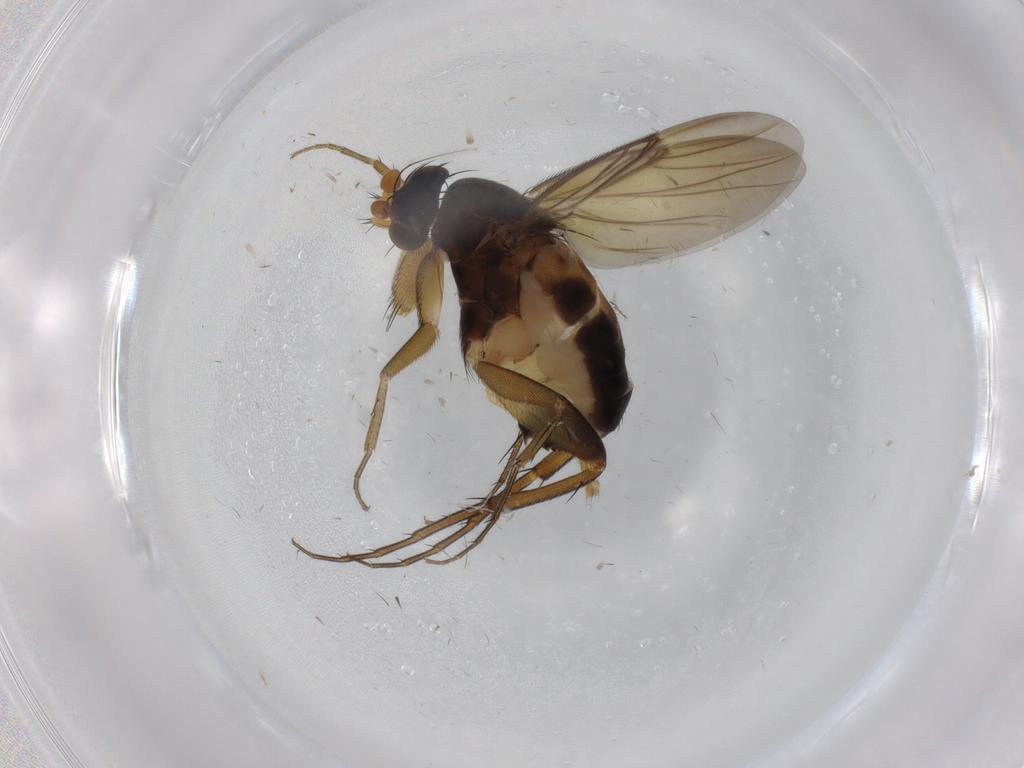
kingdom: Animalia
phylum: Arthropoda
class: Insecta
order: Diptera
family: Phoridae
